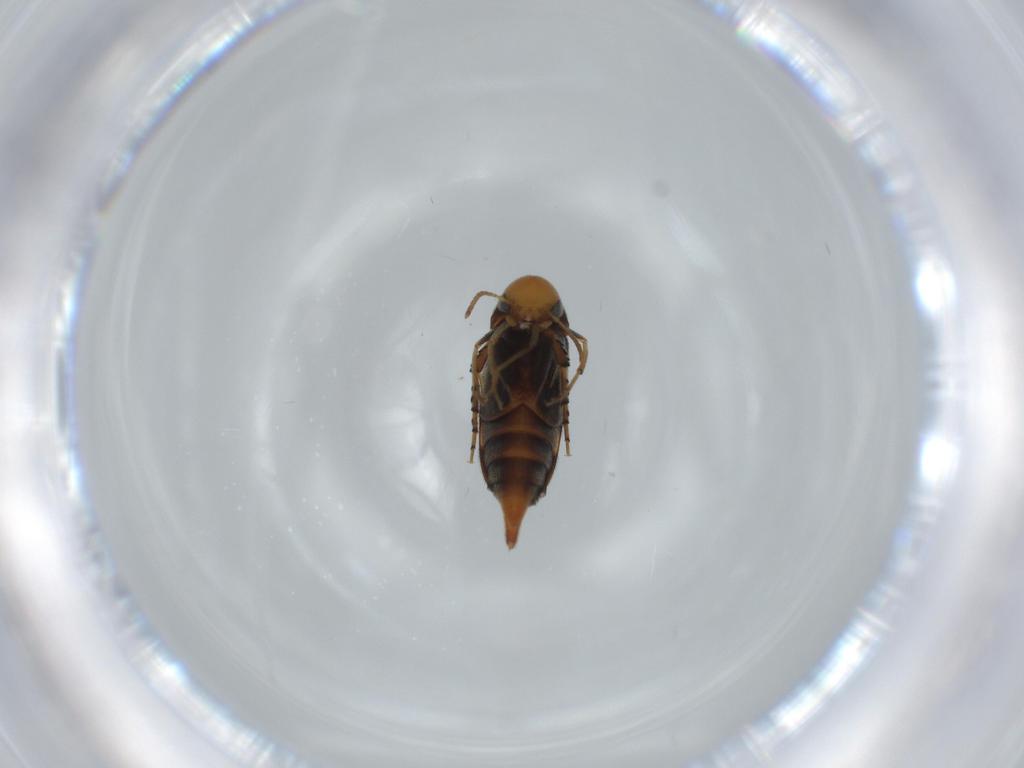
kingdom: Animalia
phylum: Arthropoda
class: Insecta
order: Coleoptera
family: Mordellidae
